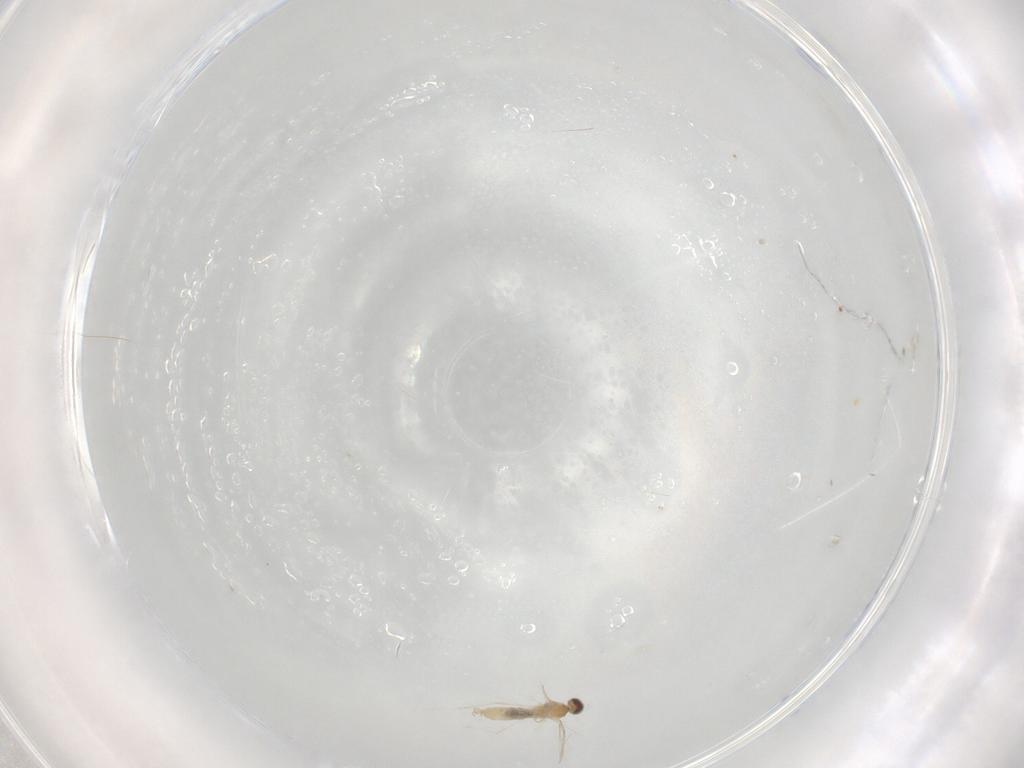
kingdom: Animalia
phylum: Arthropoda
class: Insecta
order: Diptera
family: Cecidomyiidae
